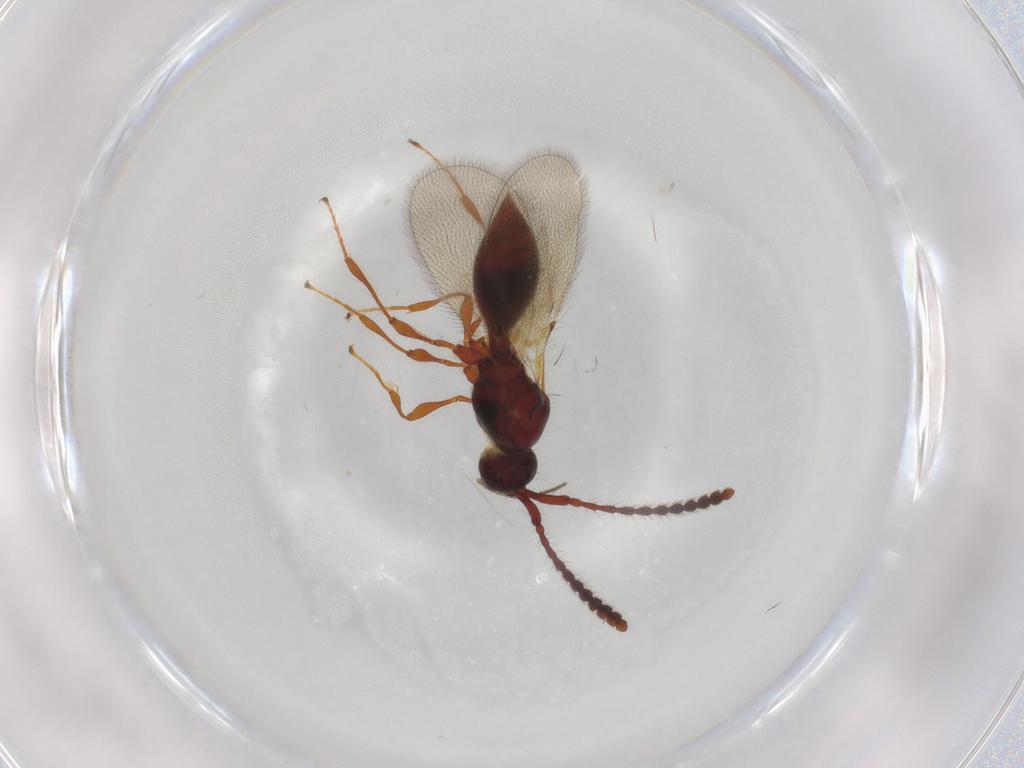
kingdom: Animalia
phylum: Arthropoda
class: Insecta
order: Hymenoptera
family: Diapriidae
